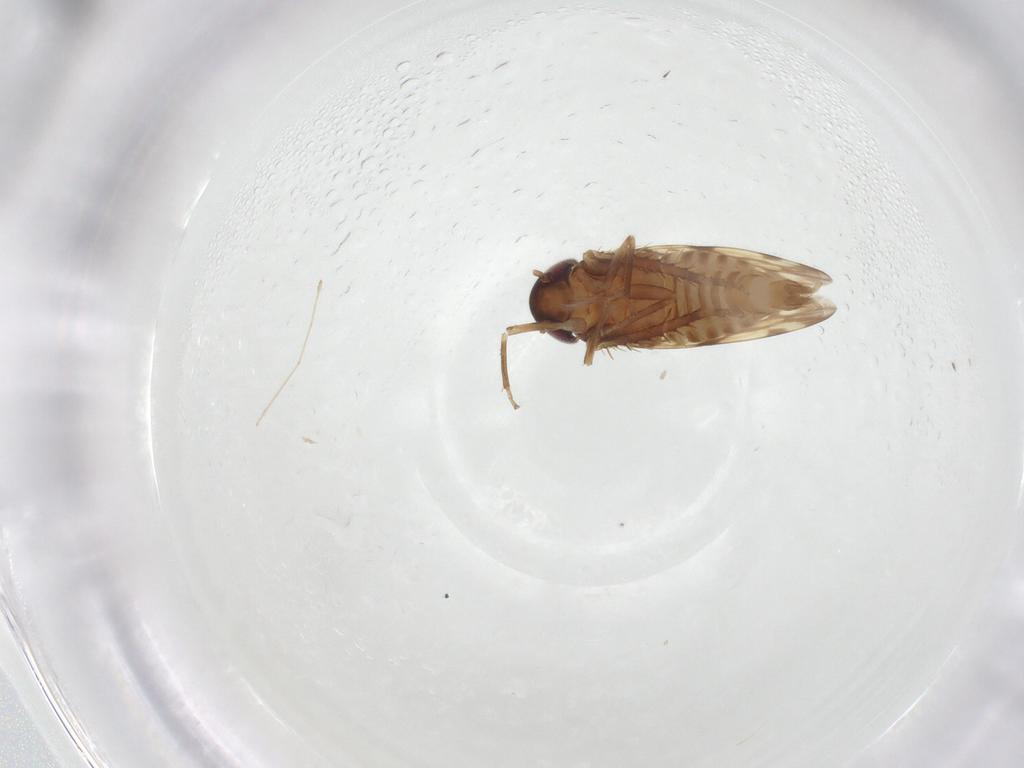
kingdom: Animalia
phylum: Arthropoda
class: Insecta
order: Hemiptera
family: Cicadellidae
